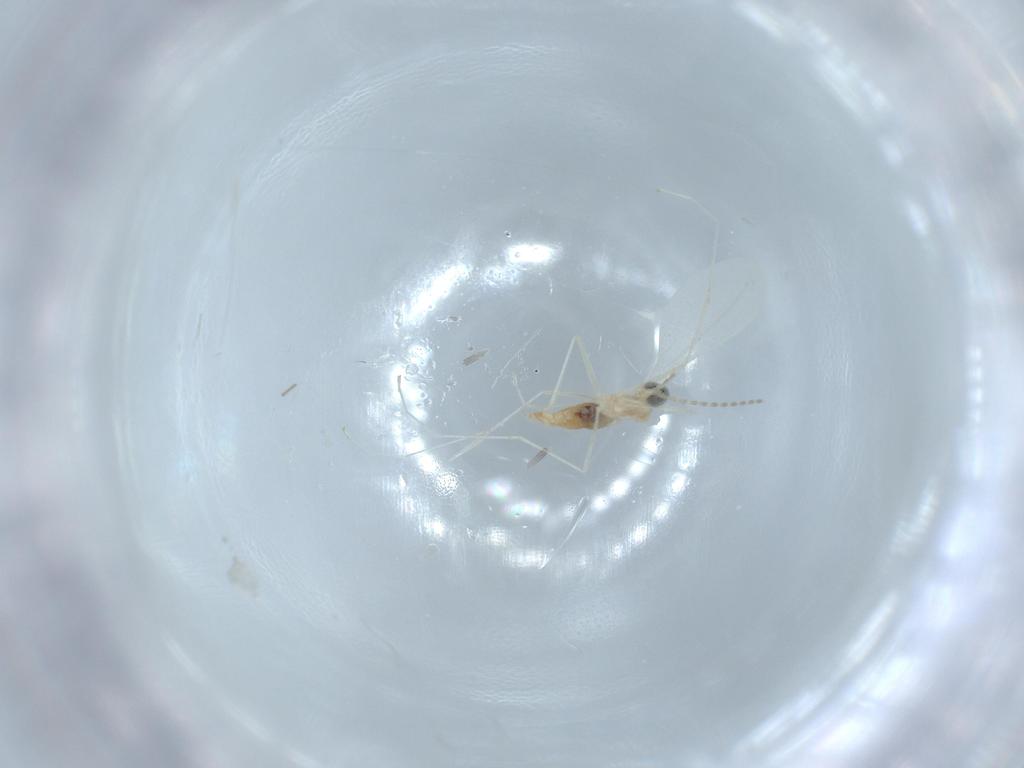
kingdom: Animalia
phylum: Arthropoda
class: Insecta
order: Diptera
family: Cecidomyiidae
